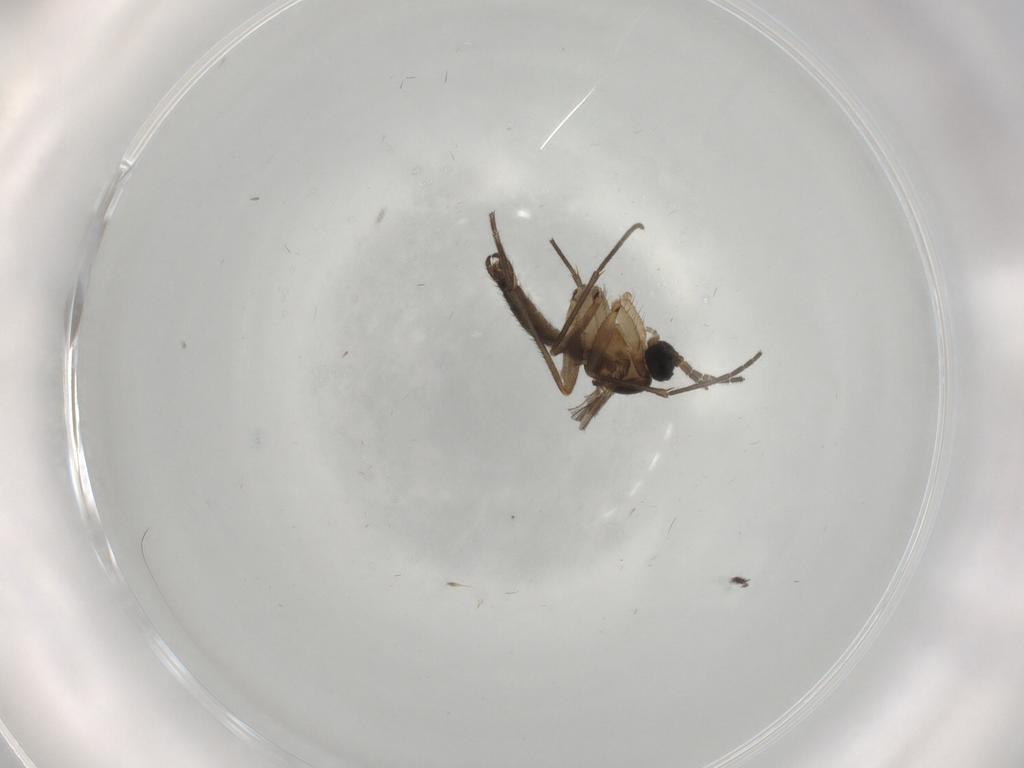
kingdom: Animalia
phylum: Arthropoda
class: Insecta
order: Diptera
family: Sciaridae
